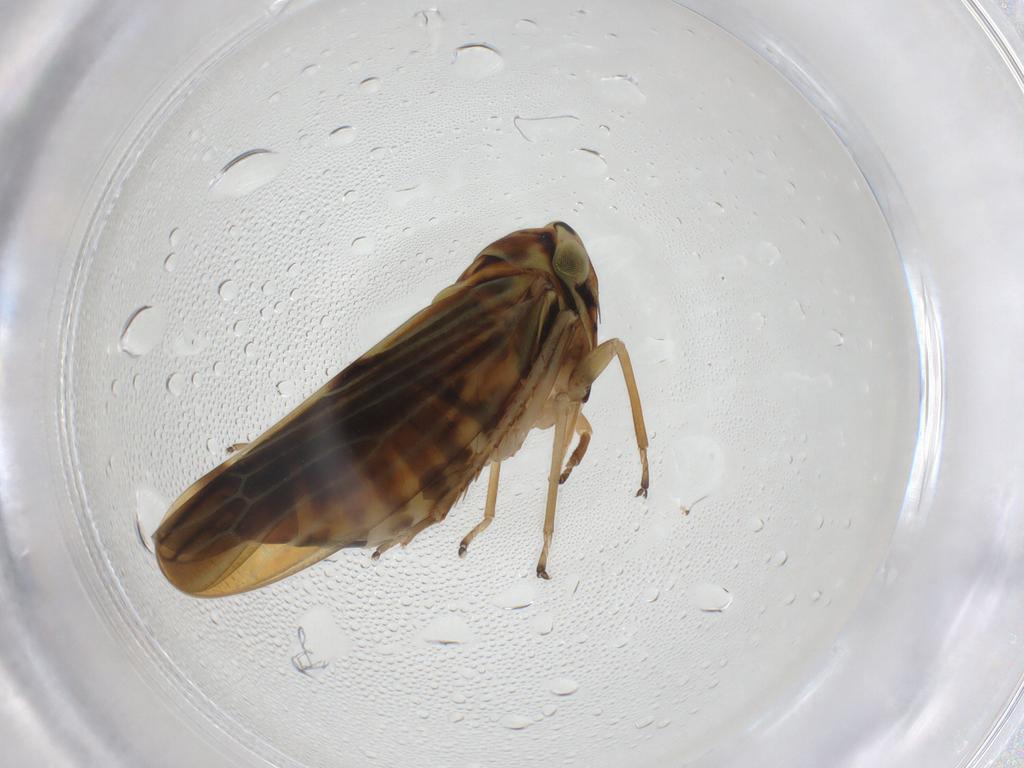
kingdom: Animalia
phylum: Arthropoda
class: Insecta
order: Hemiptera
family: Cicadellidae
